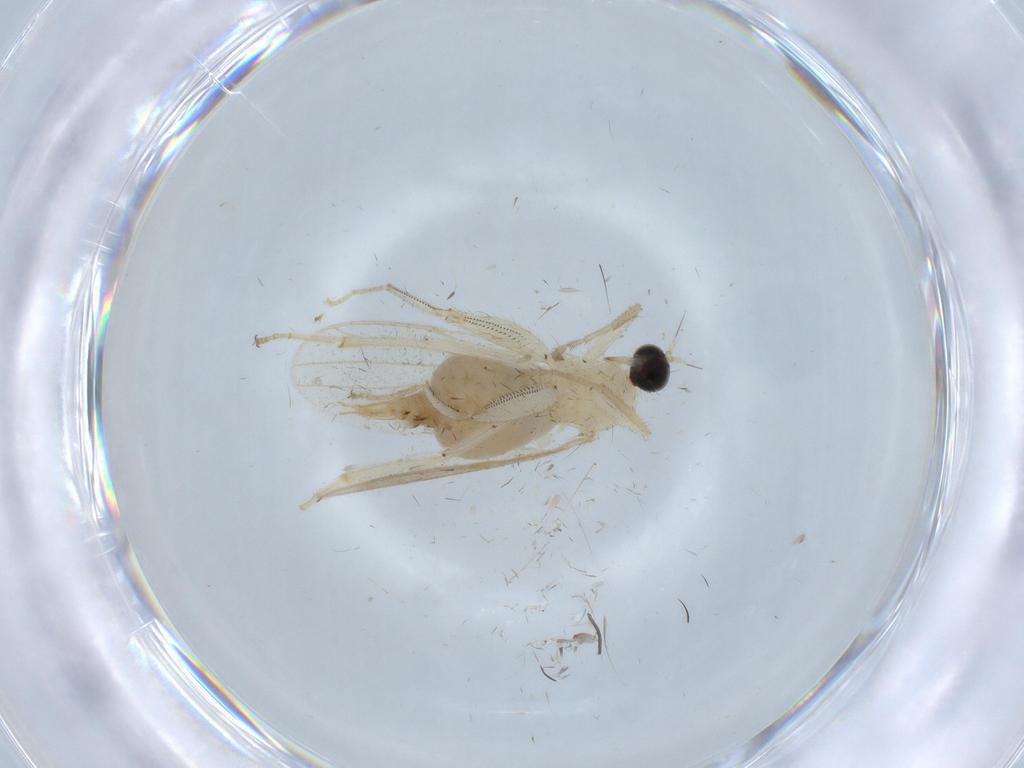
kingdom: Animalia
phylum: Arthropoda
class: Insecta
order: Diptera
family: Hybotidae
